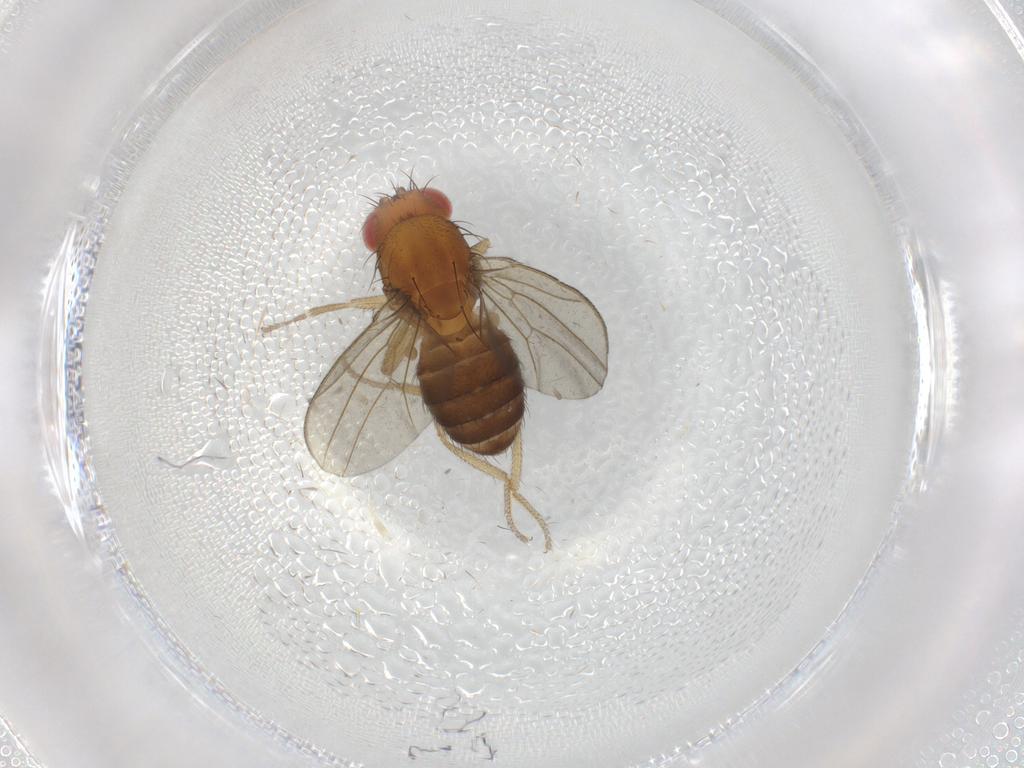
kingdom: Animalia
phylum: Arthropoda
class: Insecta
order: Diptera
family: Drosophilidae
